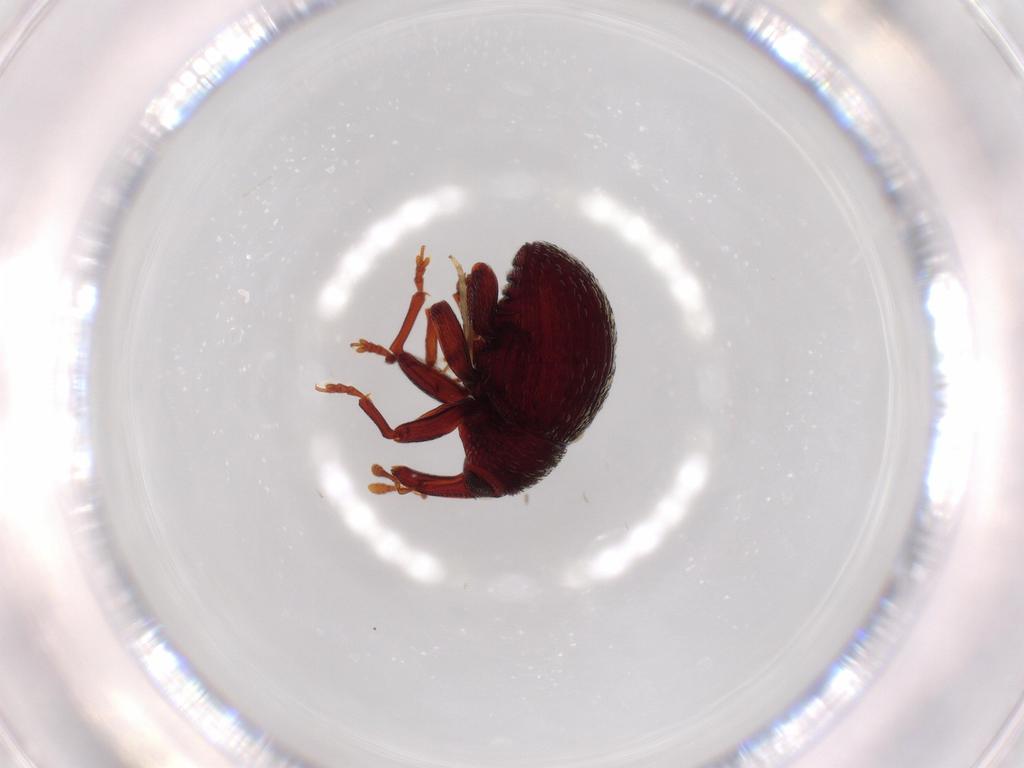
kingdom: Animalia
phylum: Arthropoda
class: Insecta
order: Coleoptera
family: Curculionidae
